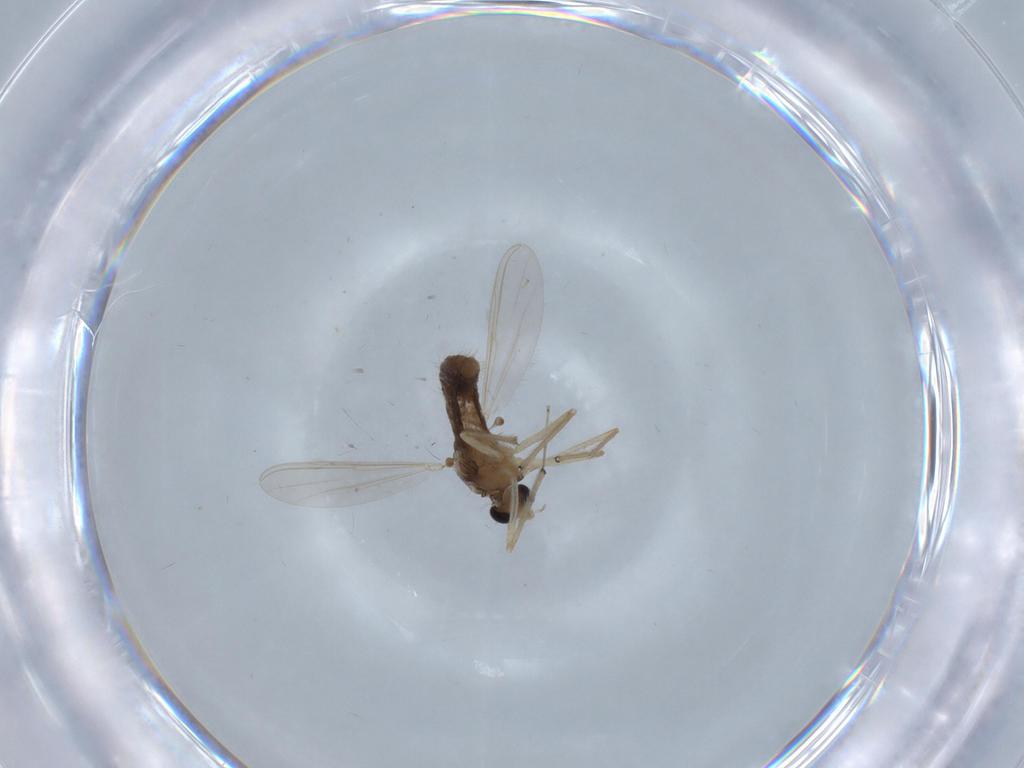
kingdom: Animalia
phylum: Arthropoda
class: Insecta
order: Diptera
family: Chironomidae
